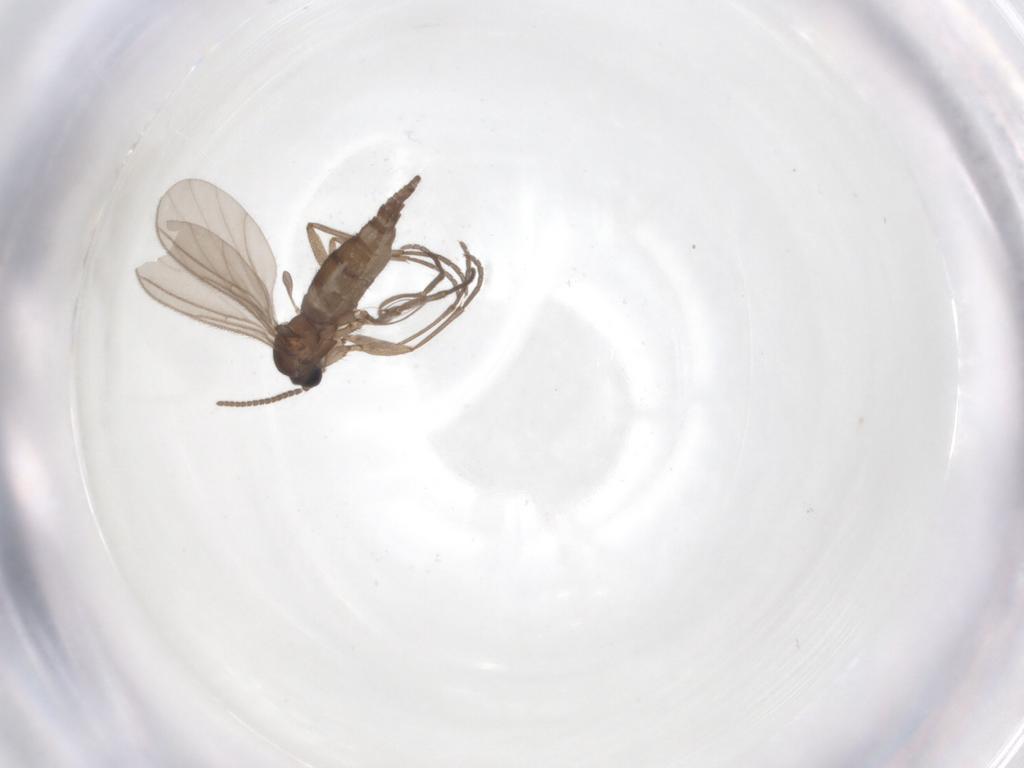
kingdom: Animalia
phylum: Arthropoda
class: Insecta
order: Diptera
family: Sciaridae
